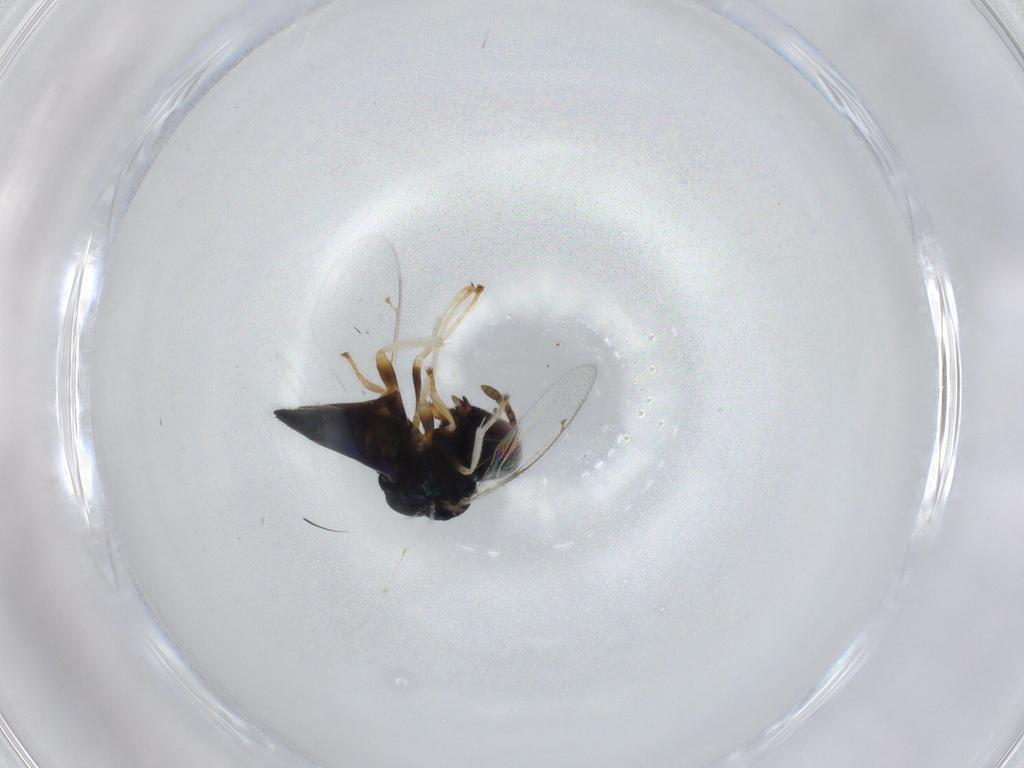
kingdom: Animalia
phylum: Arthropoda
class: Insecta
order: Hymenoptera
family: Pteromalidae
